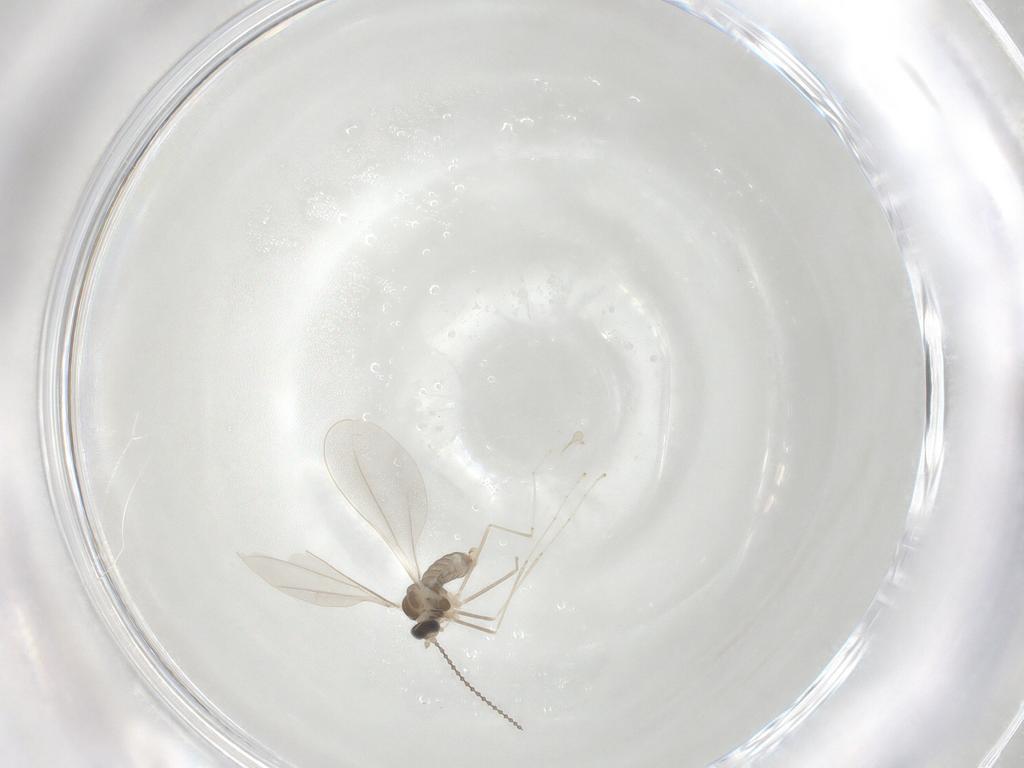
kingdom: Animalia
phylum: Arthropoda
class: Insecta
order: Diptera
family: Cecidomyiidae
